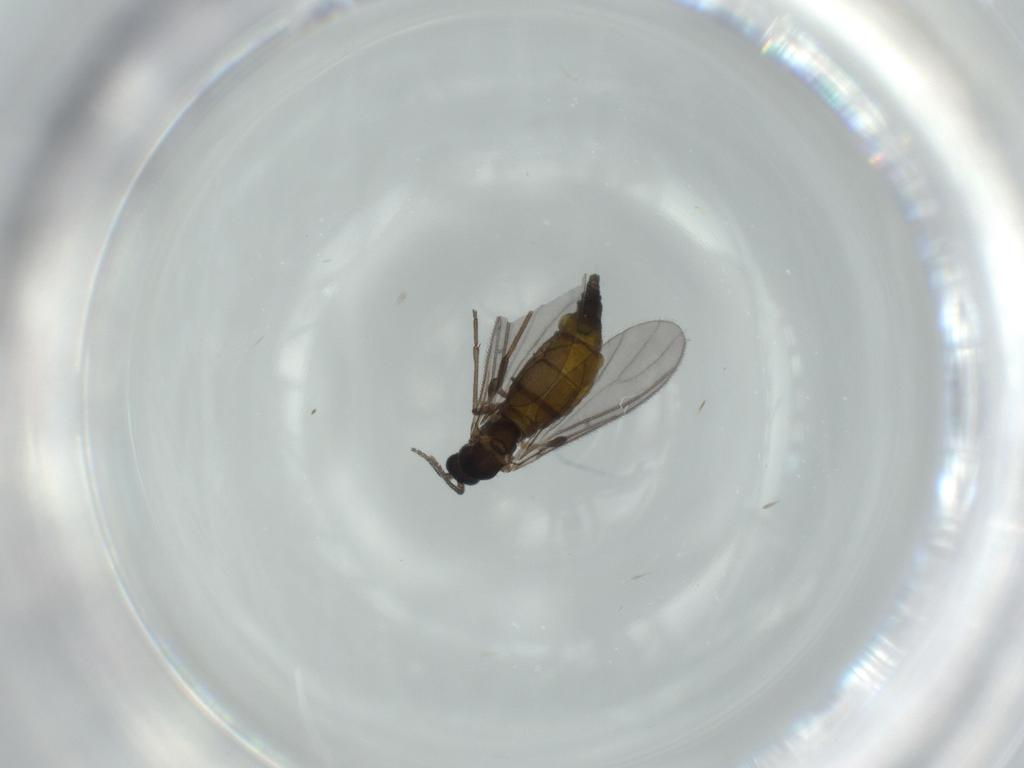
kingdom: Animalia
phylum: Arthropoda
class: Insecta
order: Diptera
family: Sciaridae
